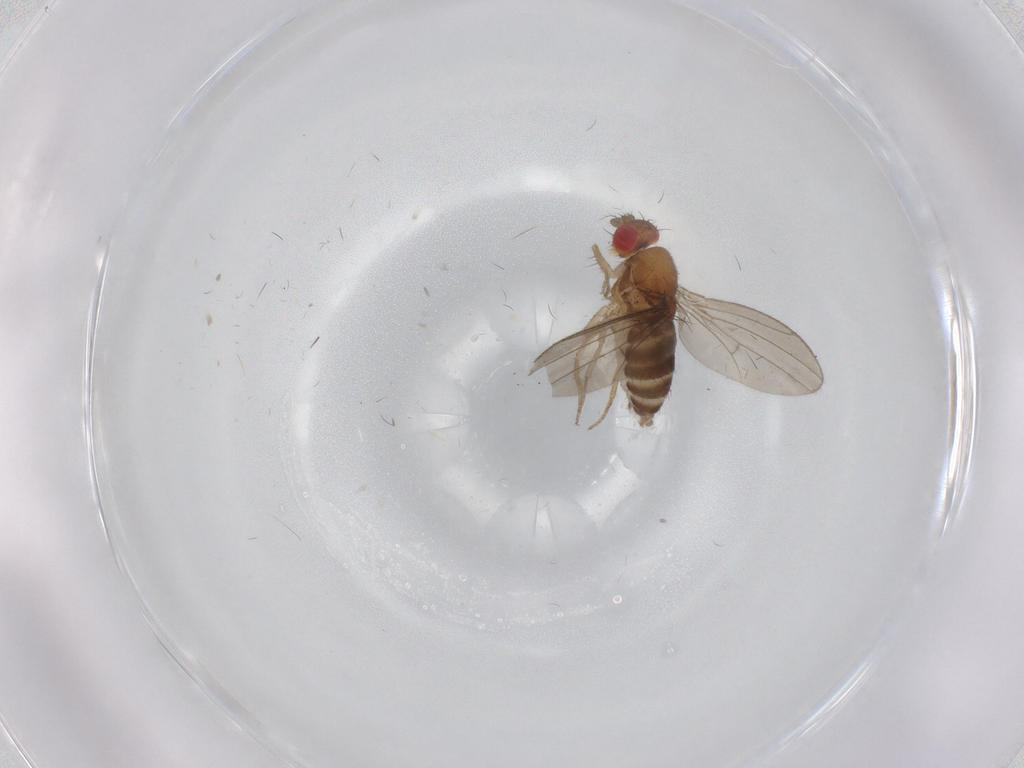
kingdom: Animalia
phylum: Arthropoda
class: Insecta
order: Diptera
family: Drosophilidae
